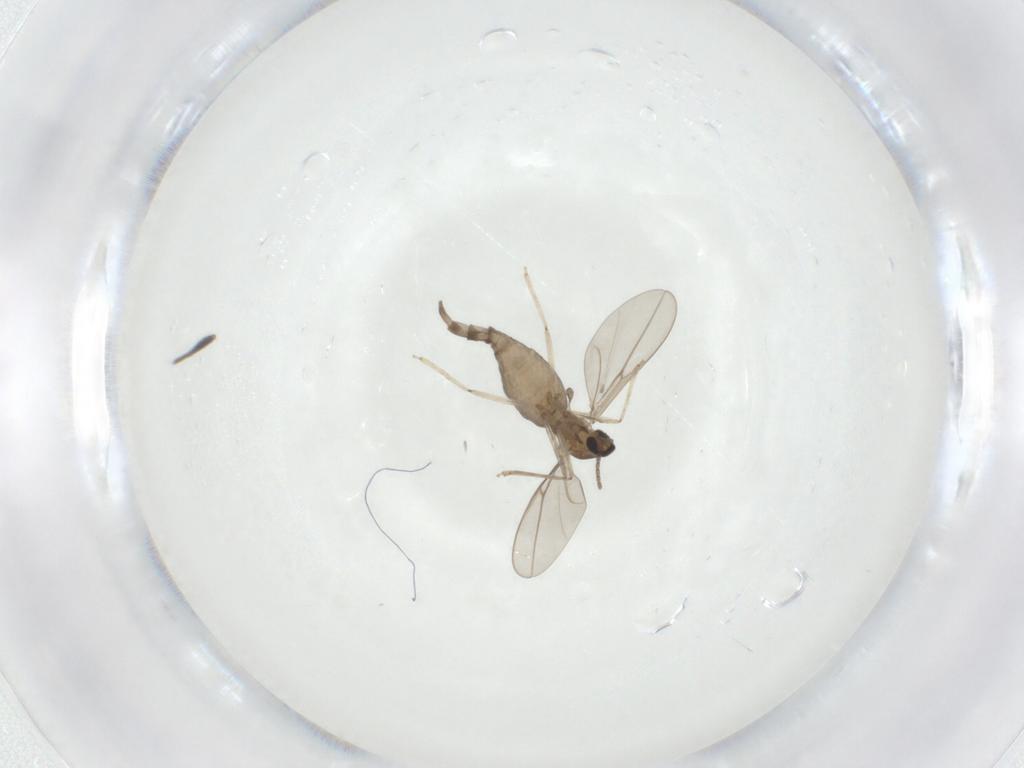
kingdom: Animalia
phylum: Arthropoda
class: Insecta
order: Diptera
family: Cecidomyiidae
